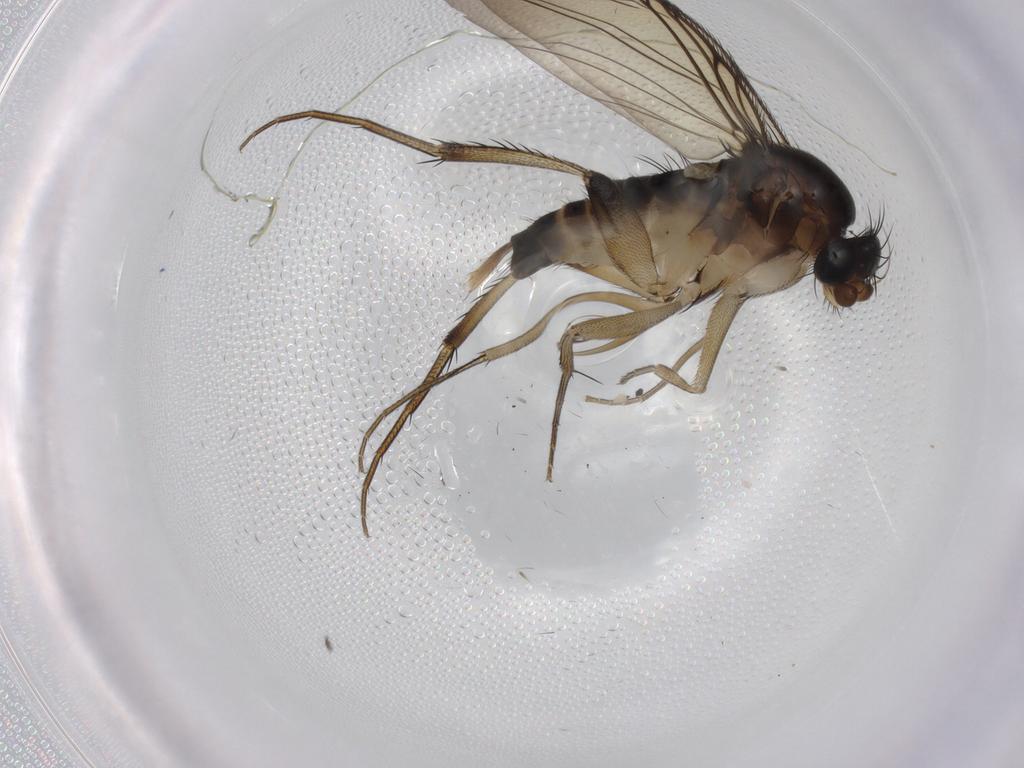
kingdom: Animalia
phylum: Arthropoda
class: Insecta
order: Diptera
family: Phoridae
